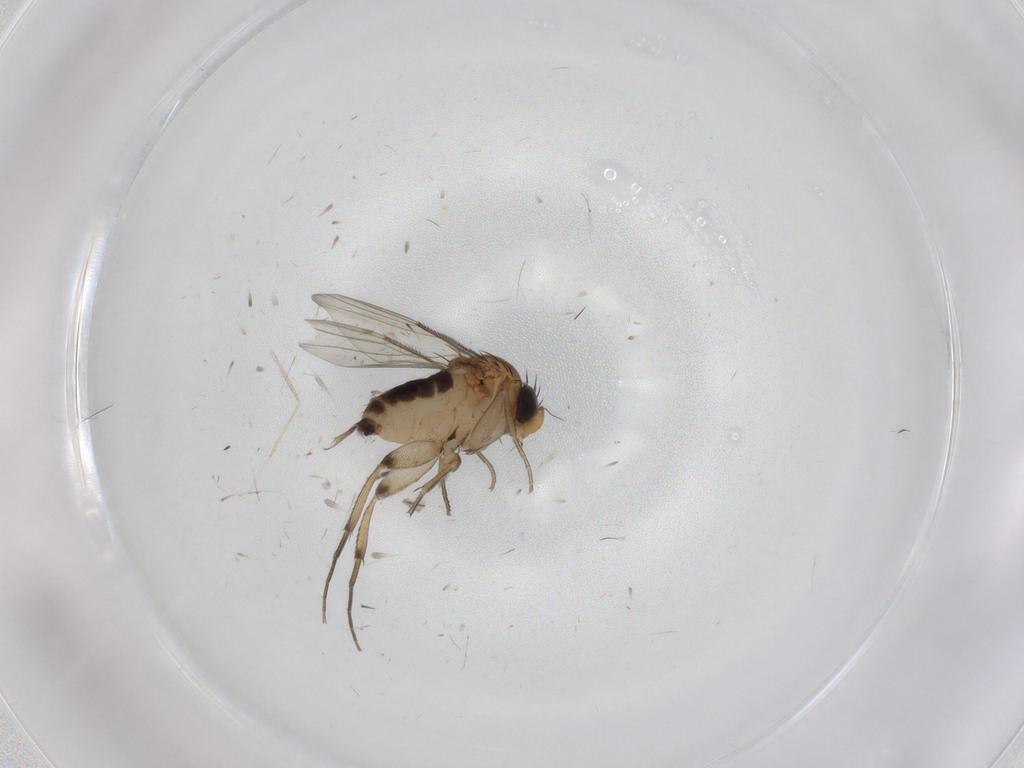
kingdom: Animalia
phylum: Arthropoda
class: Insecta
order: Diptera
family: Chironomidae
